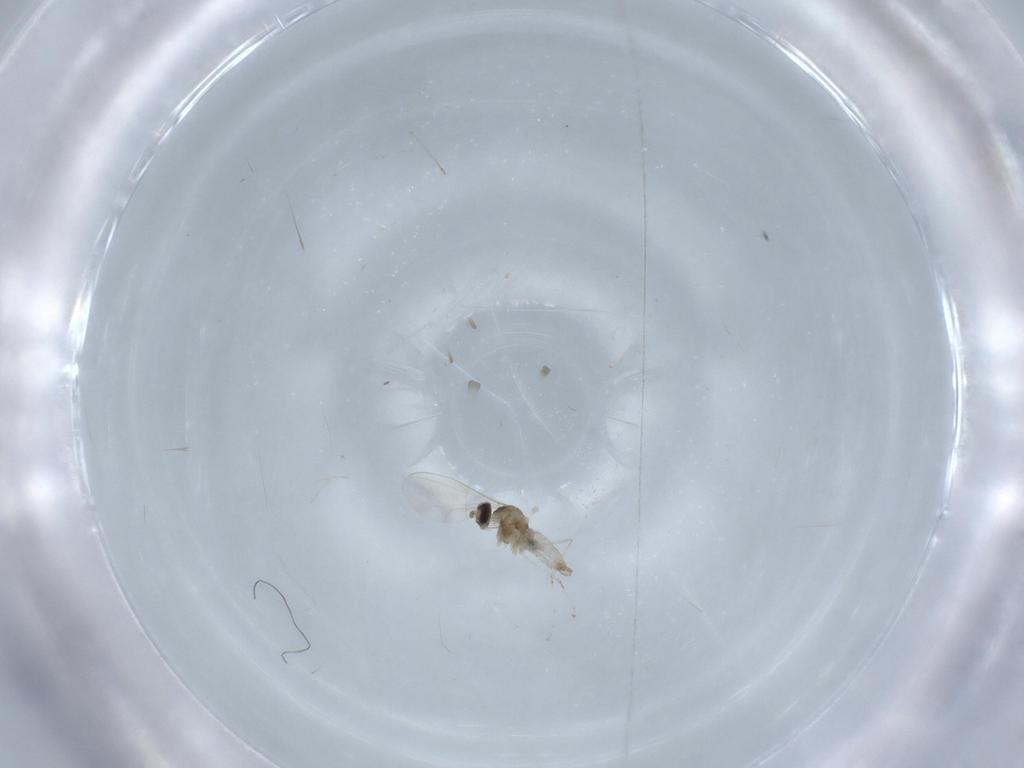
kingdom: Animalia
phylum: Arthropoda
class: Insecta
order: Diptera
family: Cecidomyiidae
